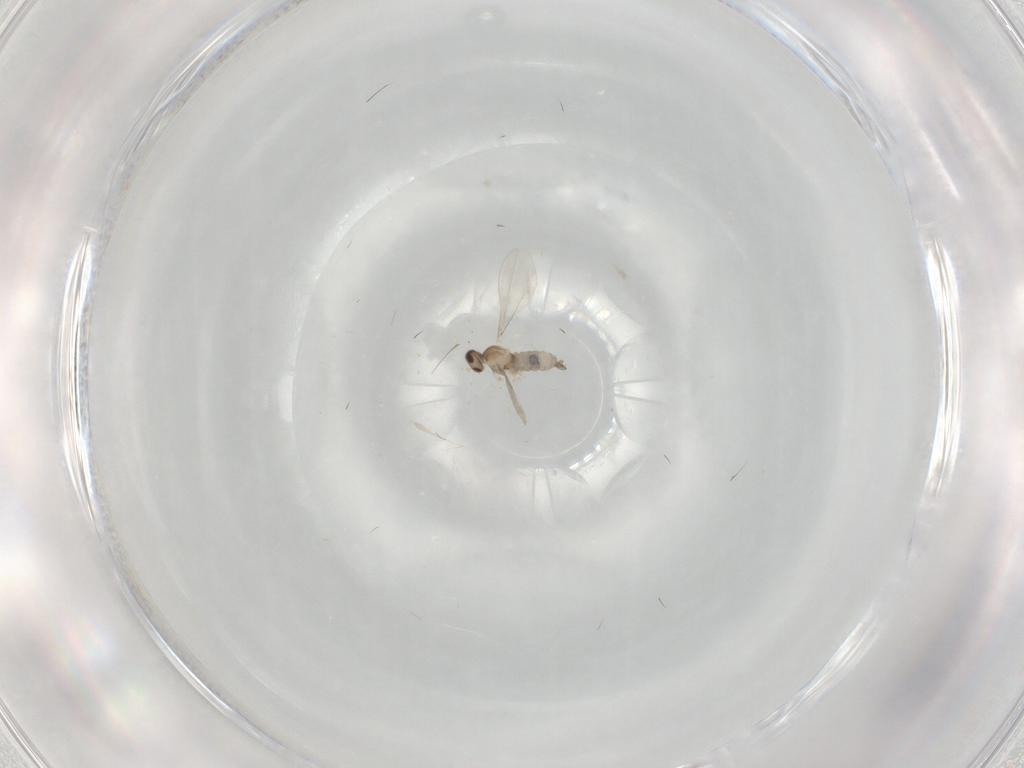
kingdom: Animalia
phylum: Arthropoda
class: Insecta
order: Diptera
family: Cecidomyiidae
